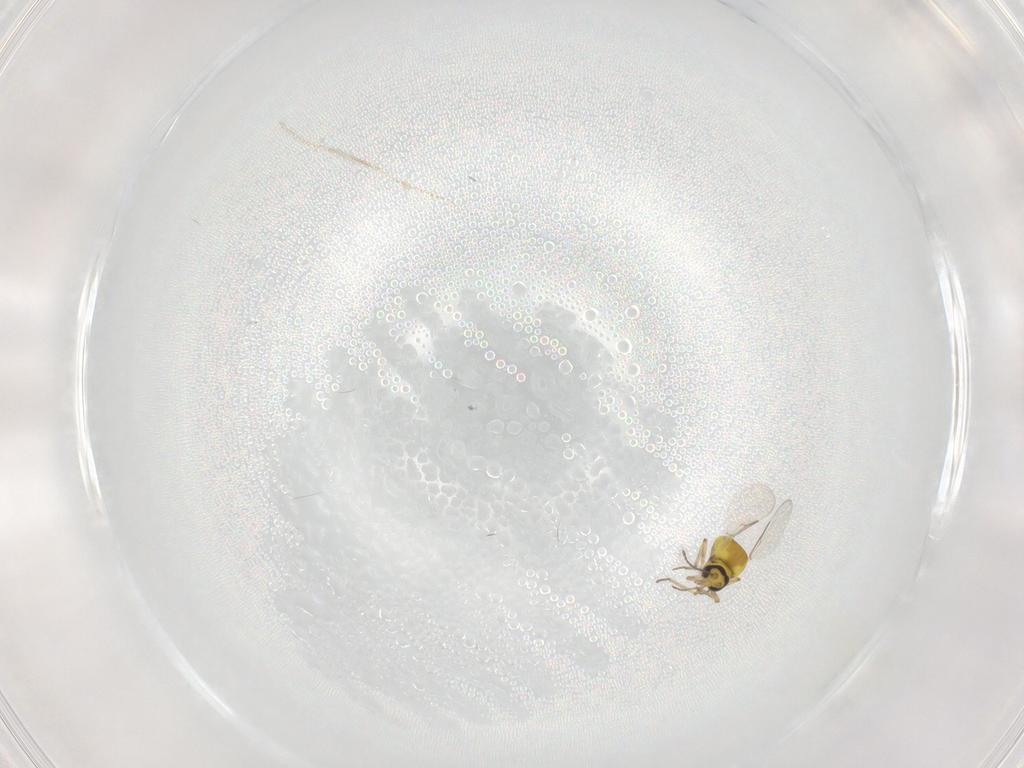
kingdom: Animalia
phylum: Arthropoda
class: Insecta
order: Diptera
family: Ceratopogonidae
